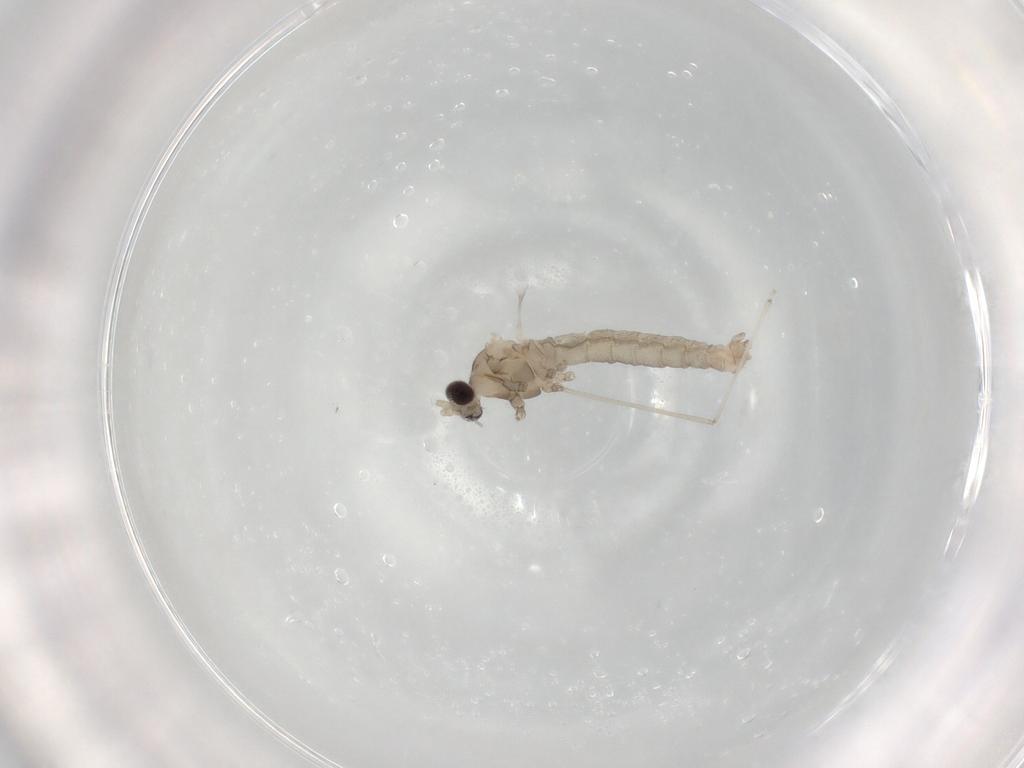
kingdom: Animalia
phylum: Arthropoda
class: Insecta
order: Diptera
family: Cecidomyiidae
